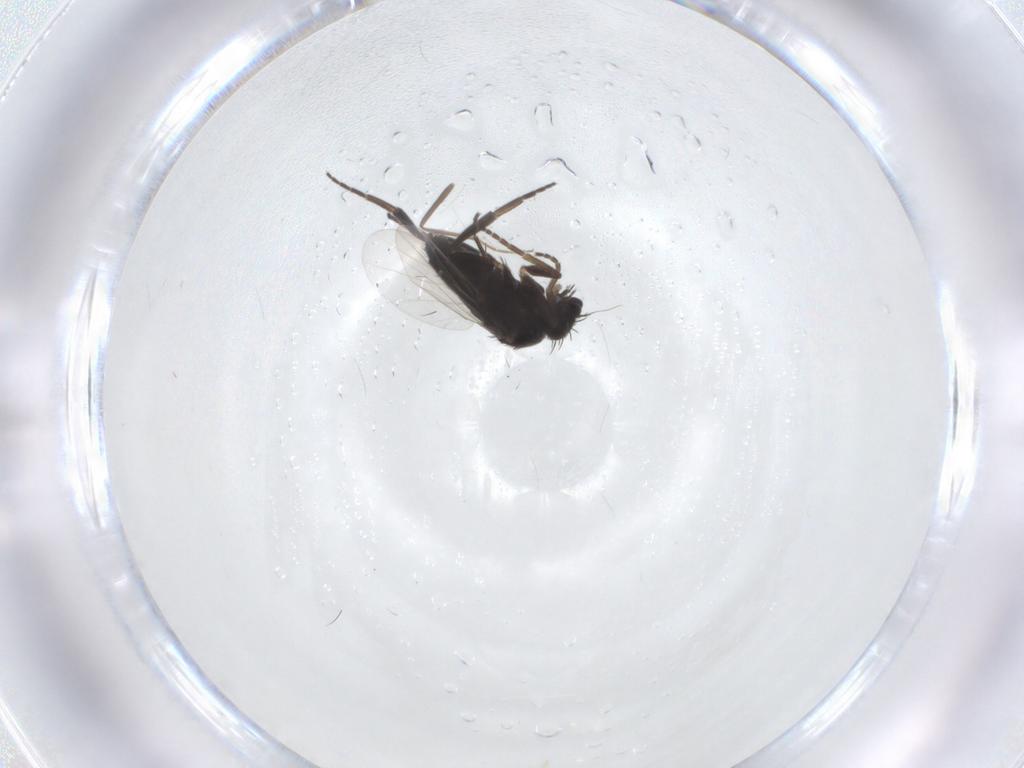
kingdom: Animalia
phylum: Arthropoda
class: Insecta
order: Diptera
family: Phoridae
